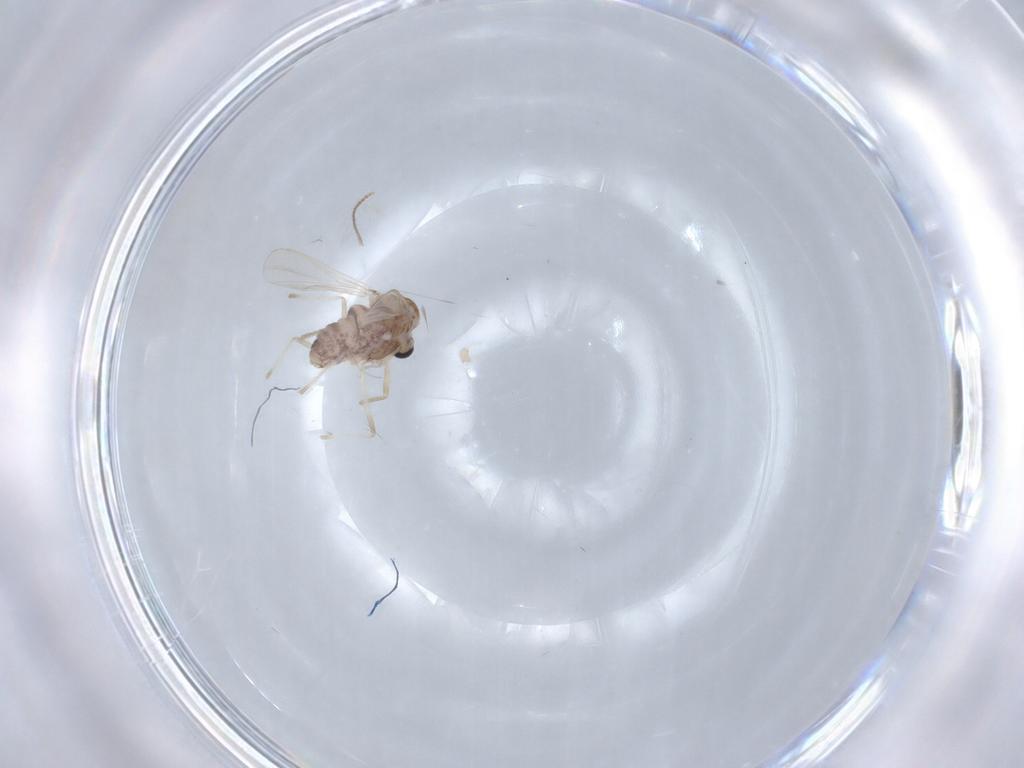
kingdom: Animalia
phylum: Arthropoda
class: Insecta
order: Diptera
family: Chironomidae
